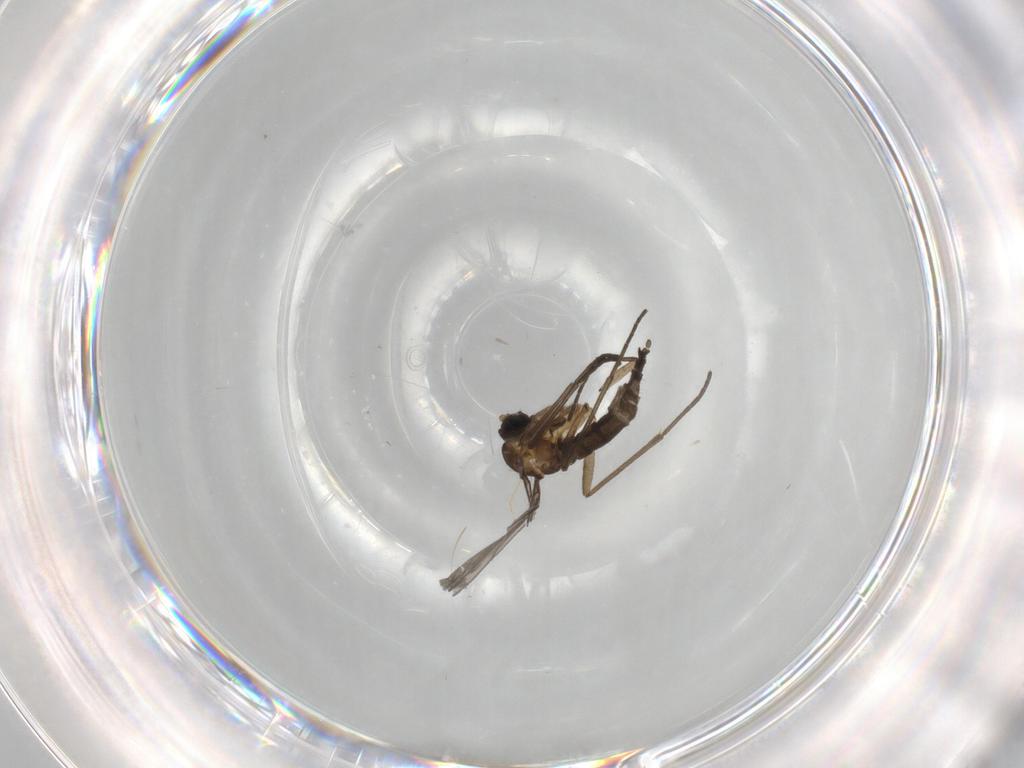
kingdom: Animalia
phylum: Arthropoda
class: Insecta
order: Diptera
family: Sciaridae
